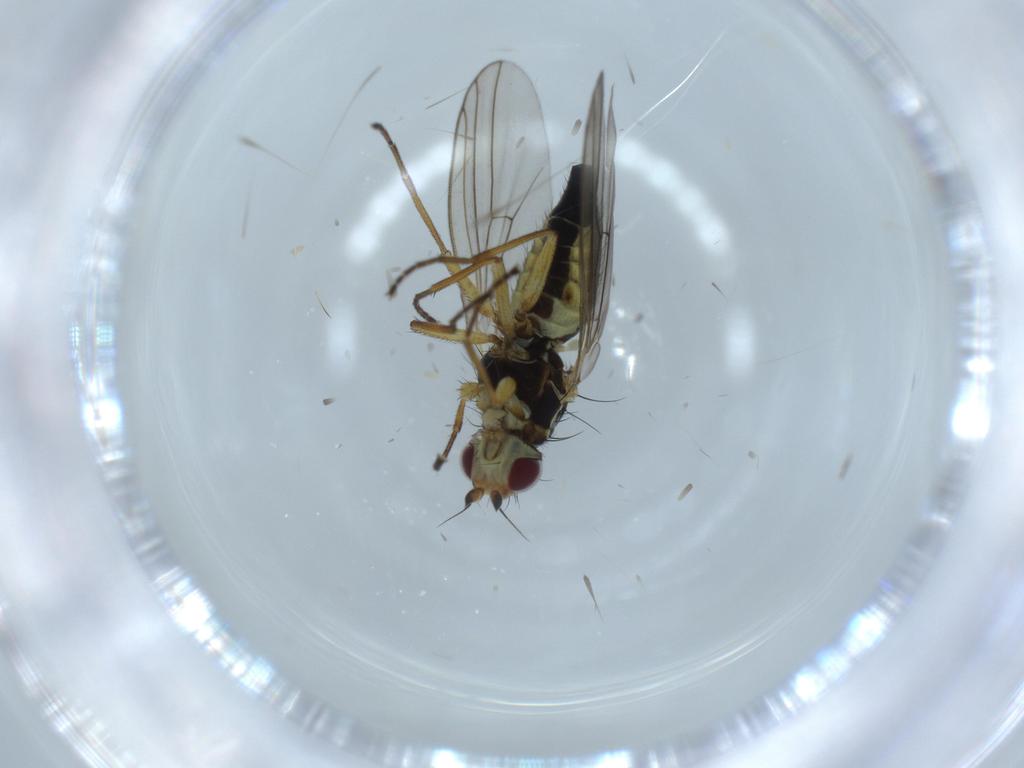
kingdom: Animalia
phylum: Arthropoda
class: Insecta
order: Diptera
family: Agromyzidae
